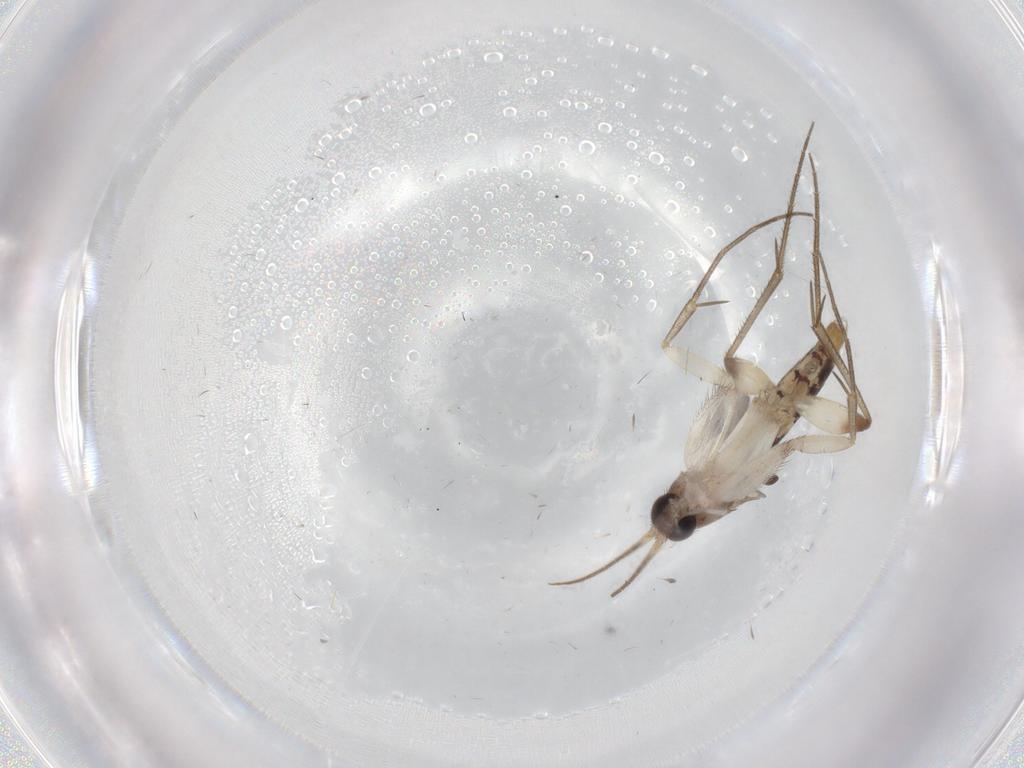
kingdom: Animalia
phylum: Arthropoda
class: Insecta
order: Diptera
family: Mycetophilidae
